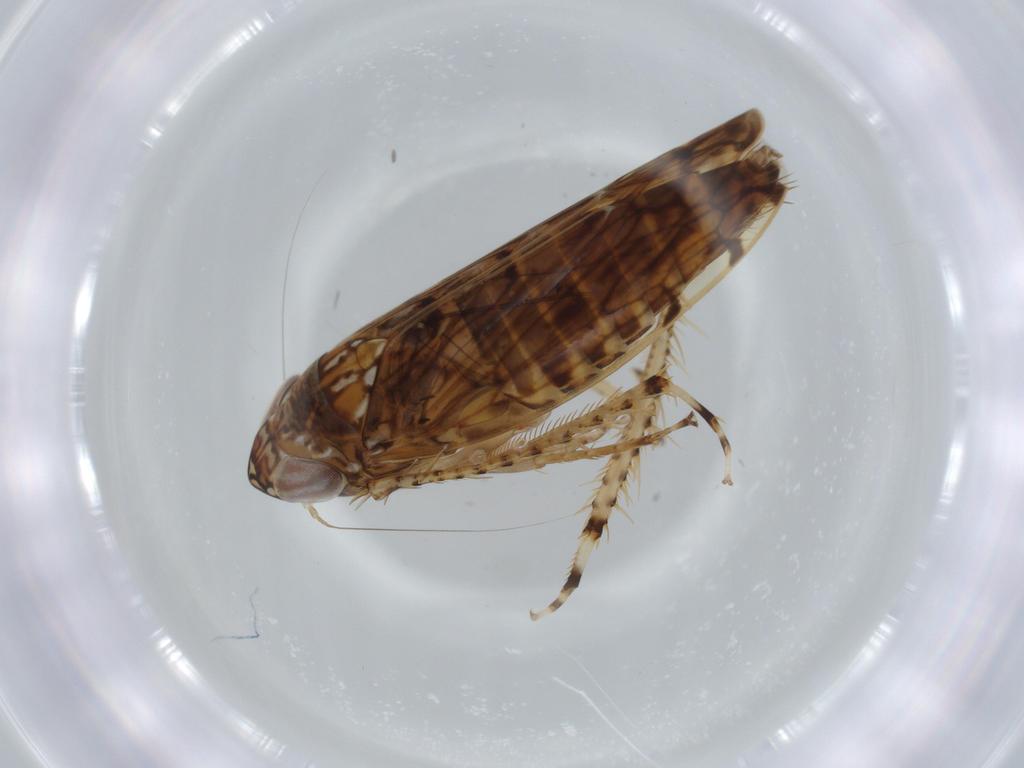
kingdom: Animalia
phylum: Arthropoda
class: Insecta
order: Hemiptera
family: Cicadellidae
